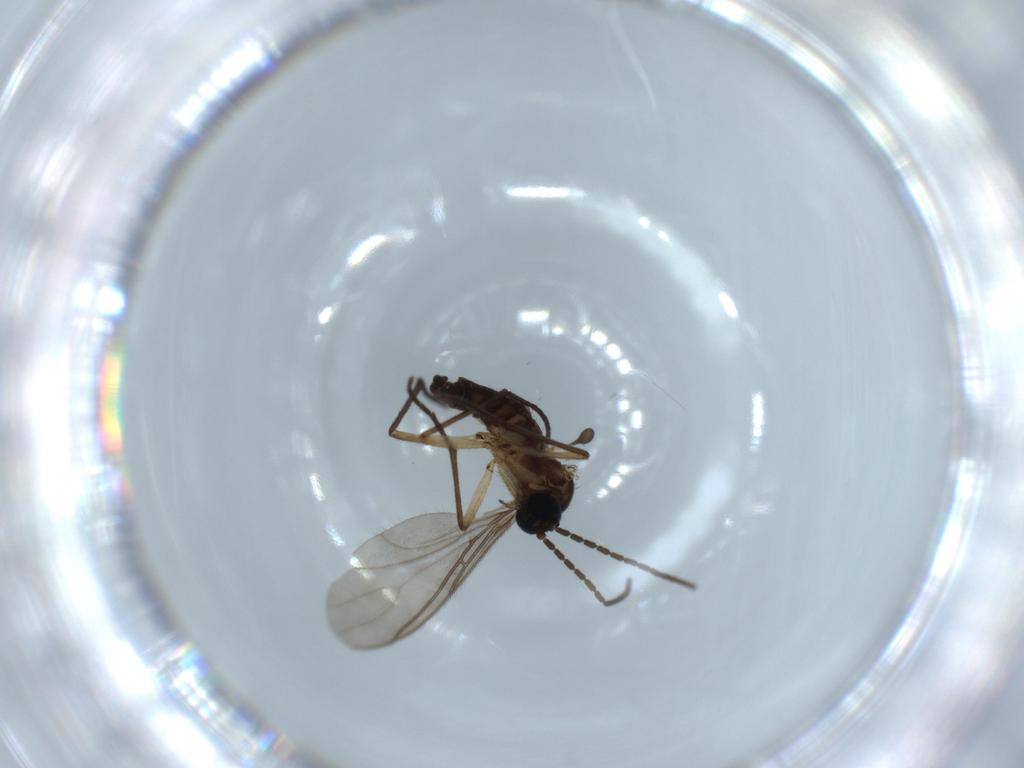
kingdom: Animalia
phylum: Arthropoda
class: Insecta
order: Diptera
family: Sciaridae
